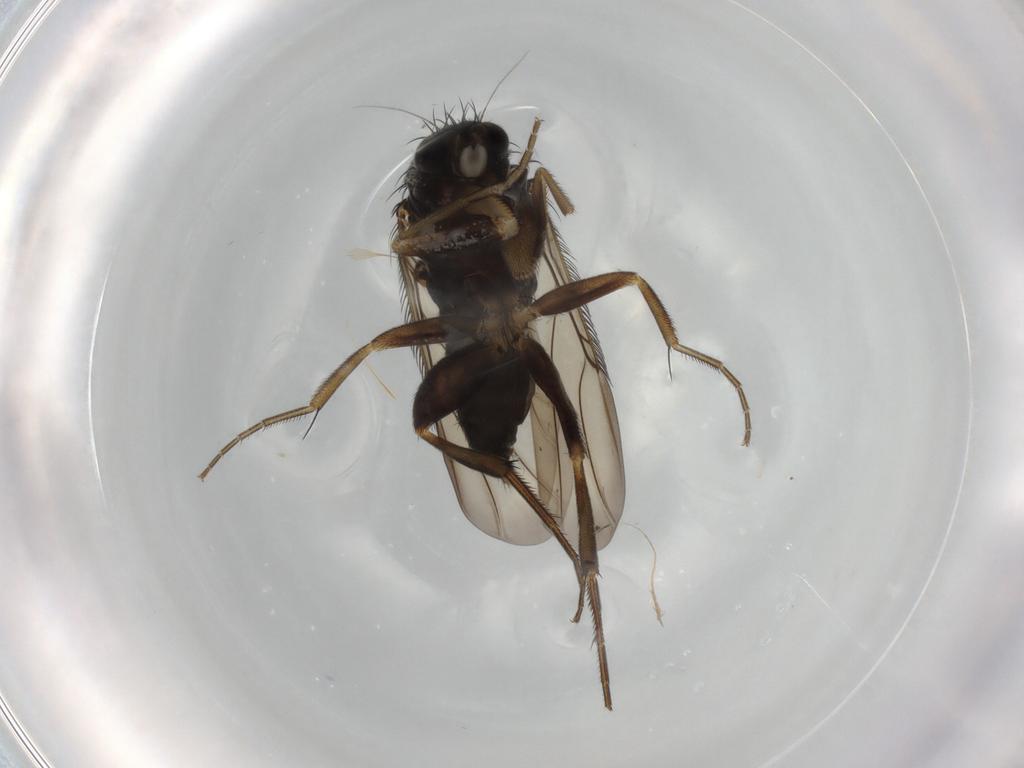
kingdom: Animalia
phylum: Arthropoda
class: Insecta
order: Diptera
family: Phoridae
